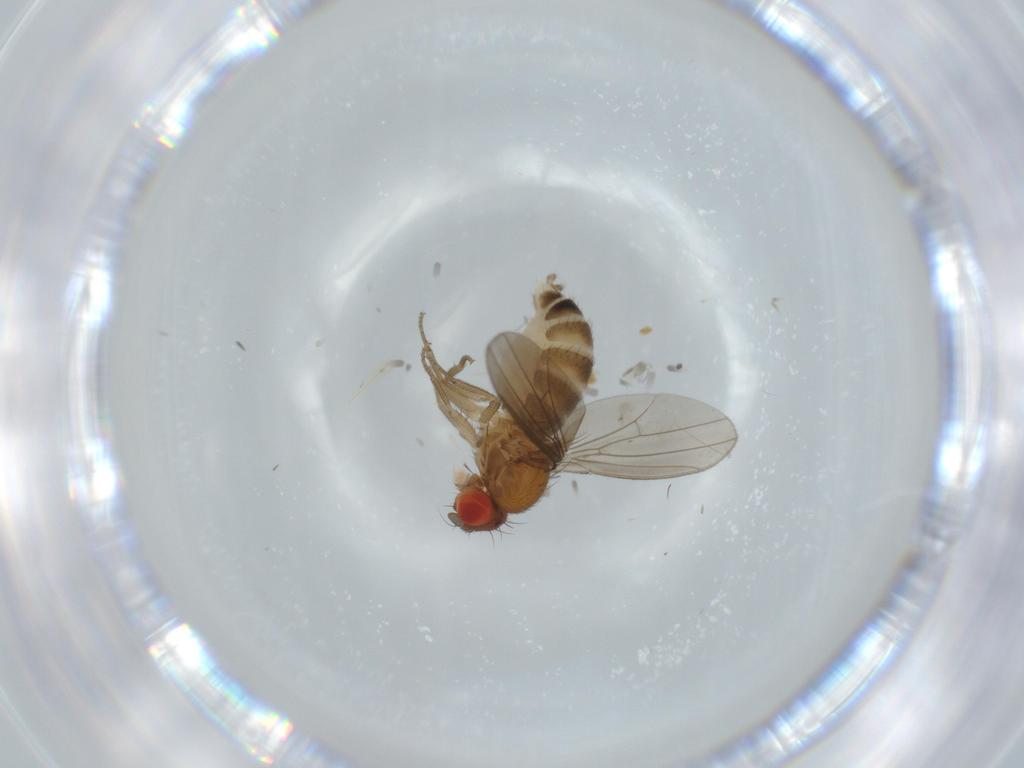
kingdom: Animalia
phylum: Arthropoda
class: Insecta
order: Diptera
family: Drosophilidae
